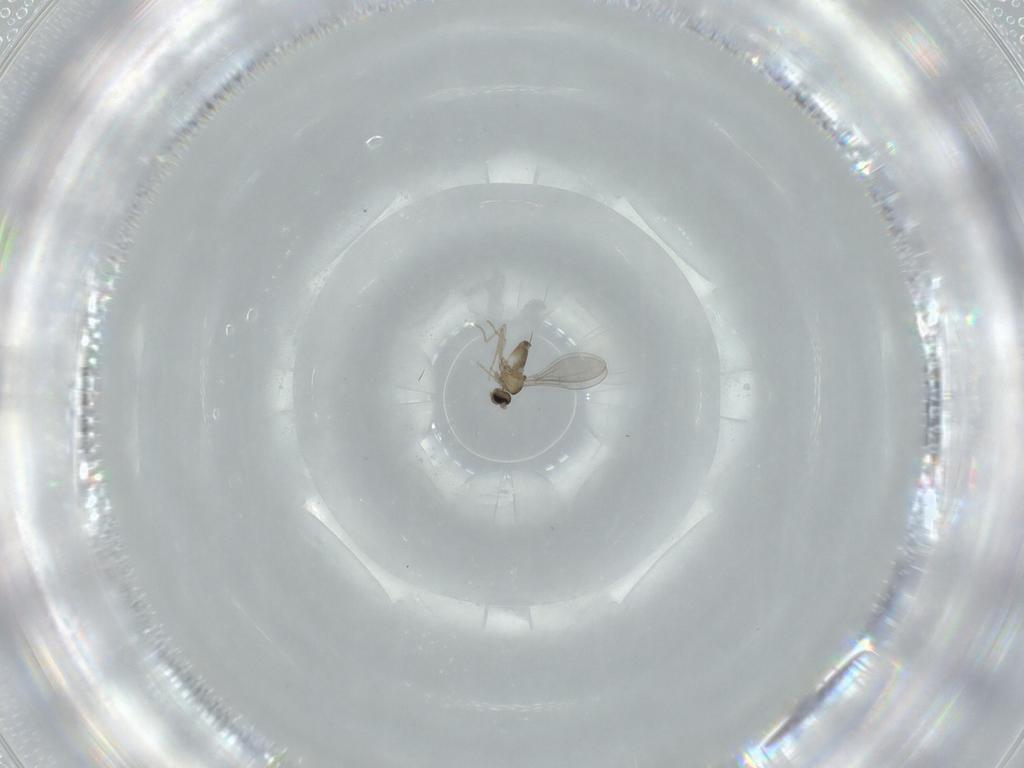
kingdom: Animalia
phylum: Arthropoda
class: Insecta
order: Diptera
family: Cecidomyiidae
